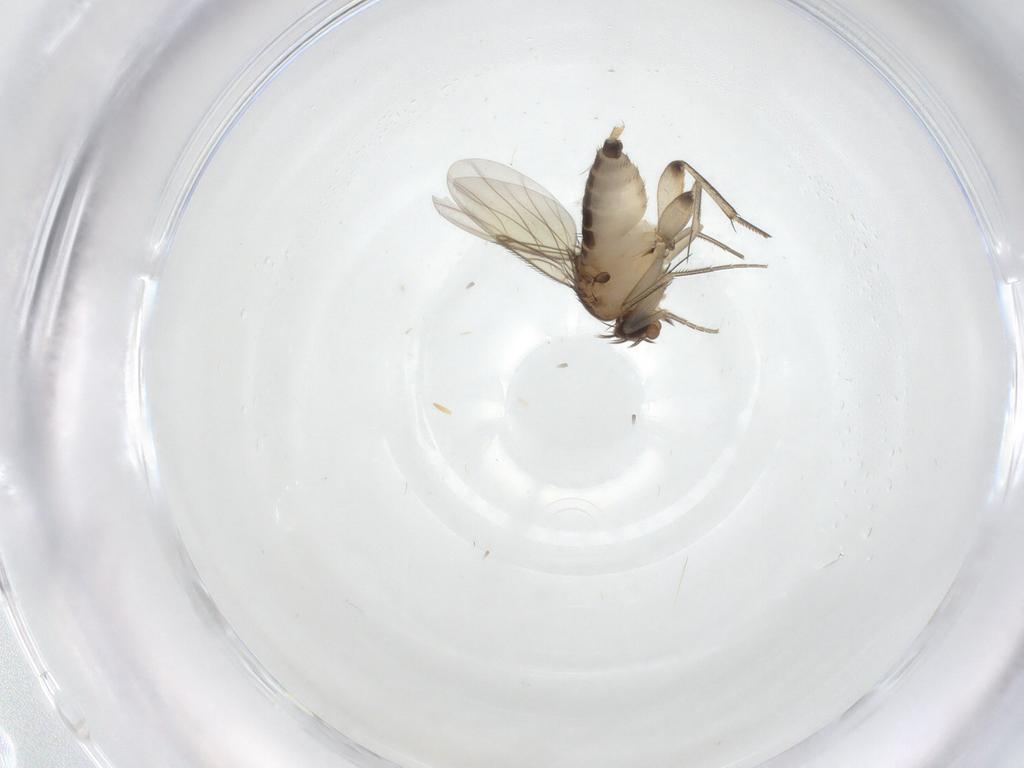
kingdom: Animalia
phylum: Arthropoda
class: Insecta
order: Diptera
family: Phoridae
